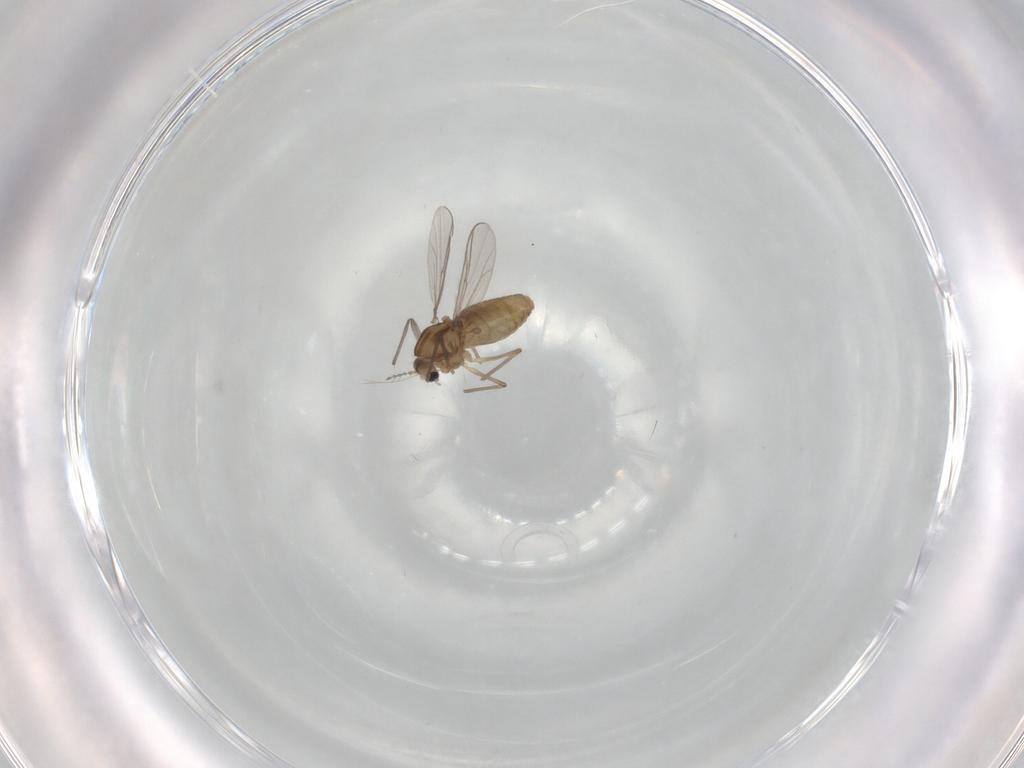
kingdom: Animalia
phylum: Arthropoda
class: Insecta
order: Diptera
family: Chironomidae
